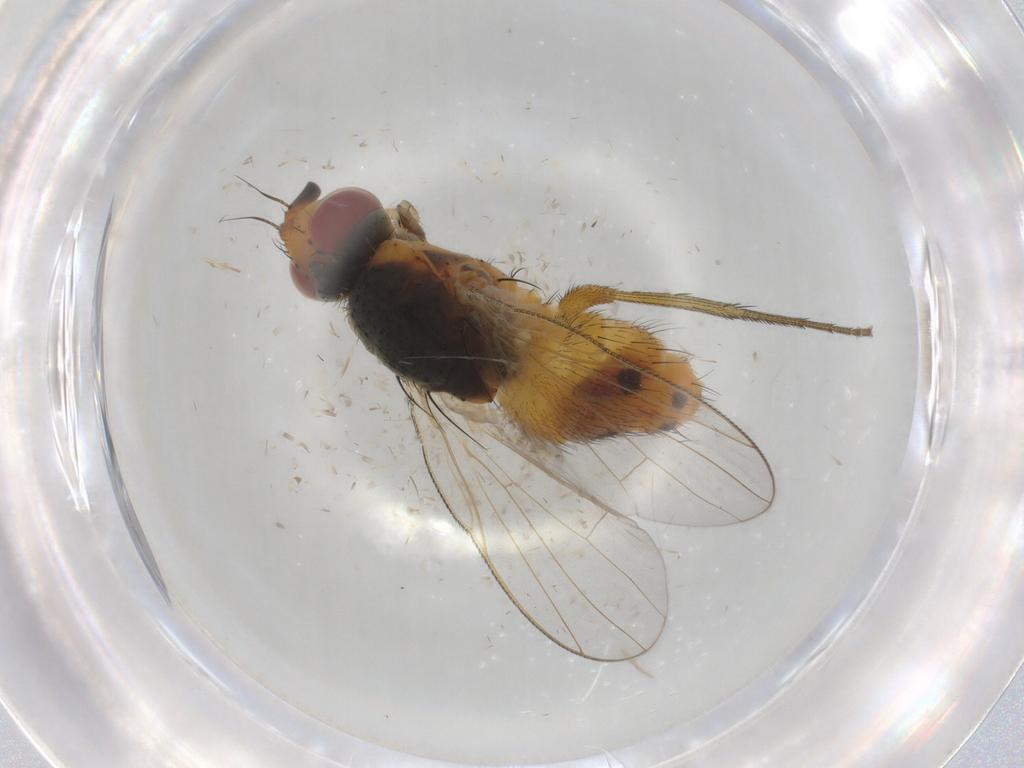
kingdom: Animalia
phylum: Arthropoda
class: Insecta
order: Diptera
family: Muscidae
